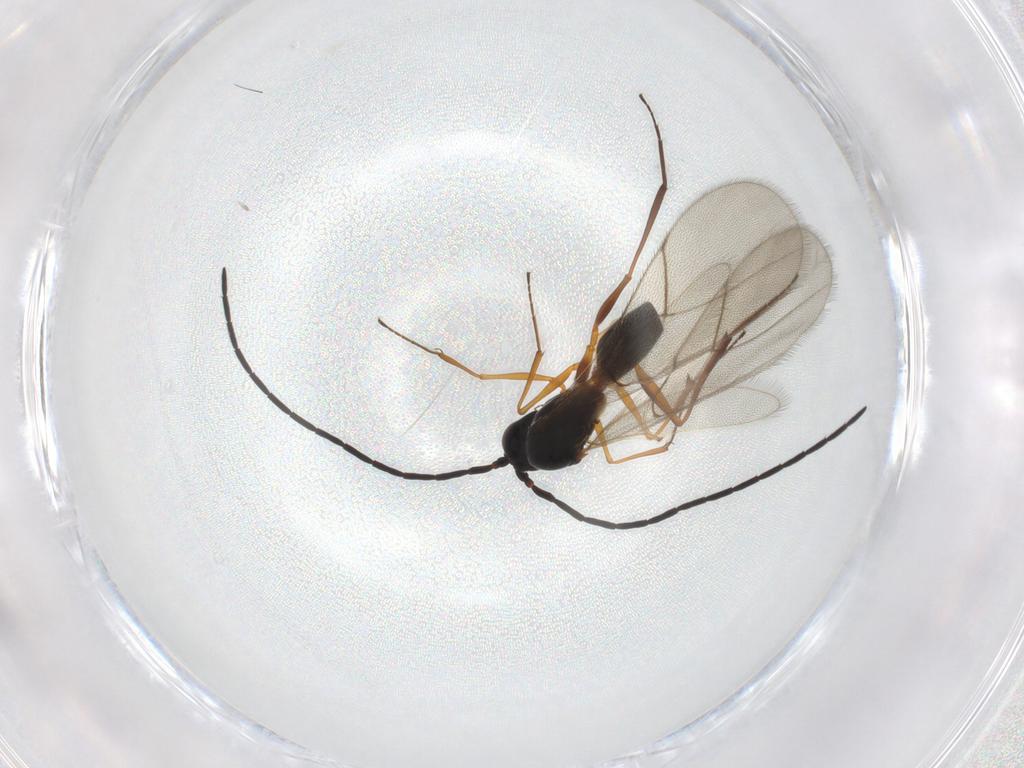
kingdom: Animalia
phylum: Arthropoda
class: Insecta
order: Hymenoptera
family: Figitidae
